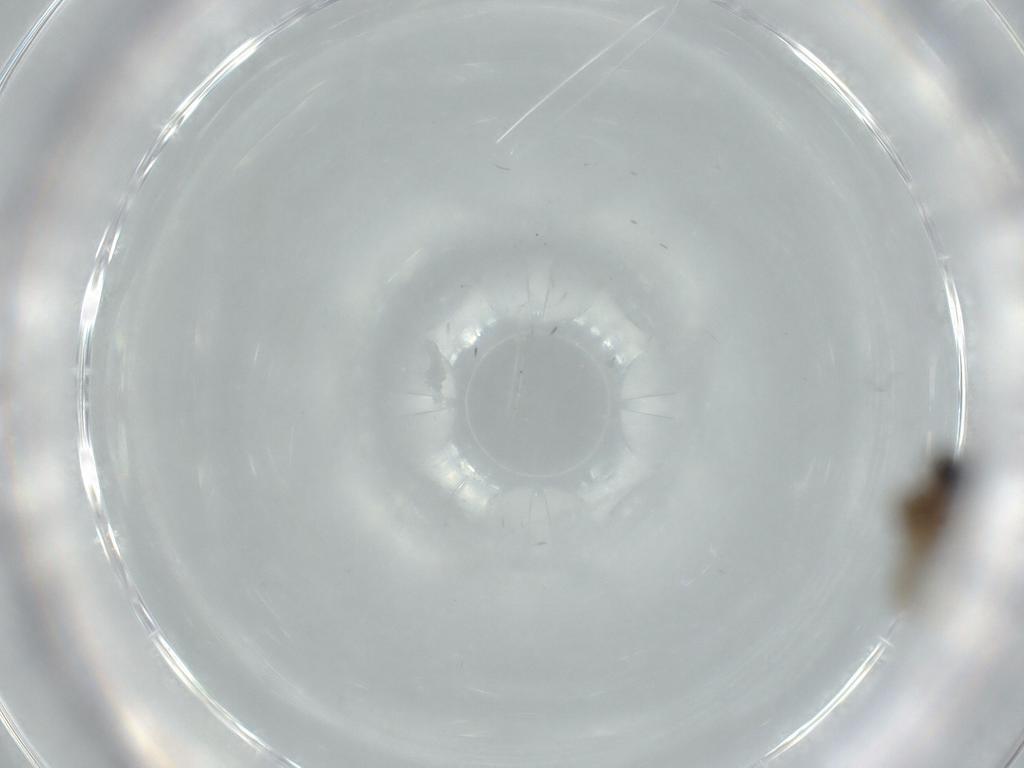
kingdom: Animalia
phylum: Arthropoda
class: Insecta
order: Diptera
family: Cecidomyiidae
